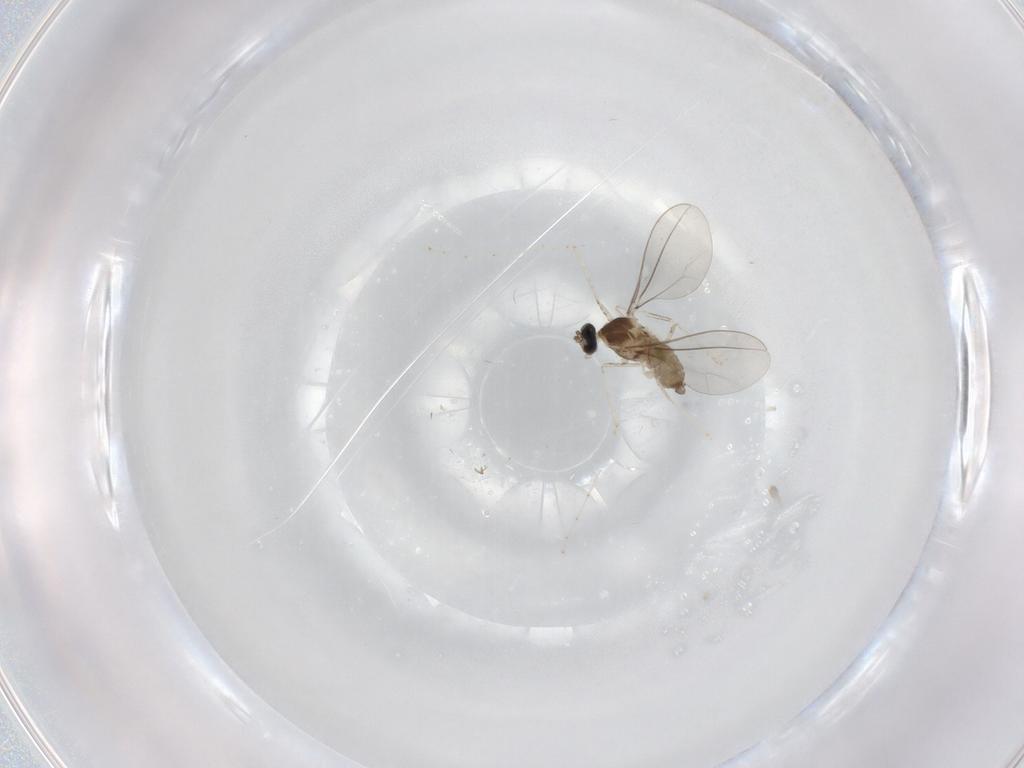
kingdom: Animalia
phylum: Arthropoda
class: Insecta
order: Diptera
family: Cecidomyiidae
